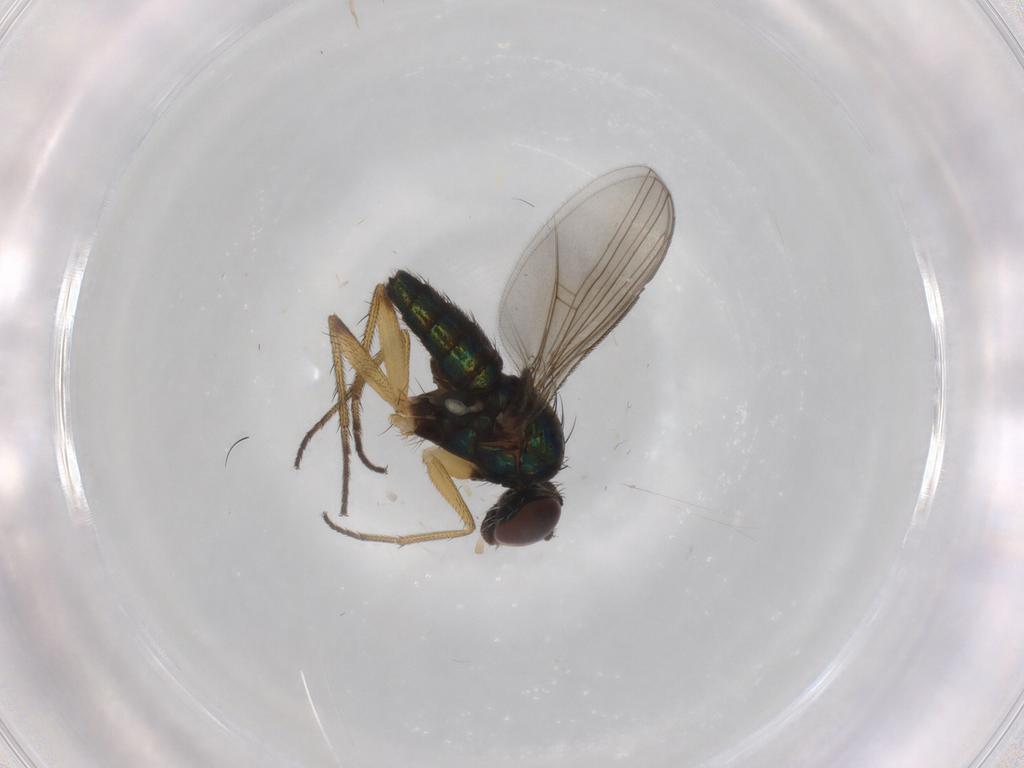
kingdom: Animalia
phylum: Arthropoda
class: Insecta
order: Diptera
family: Dolichopodidae
